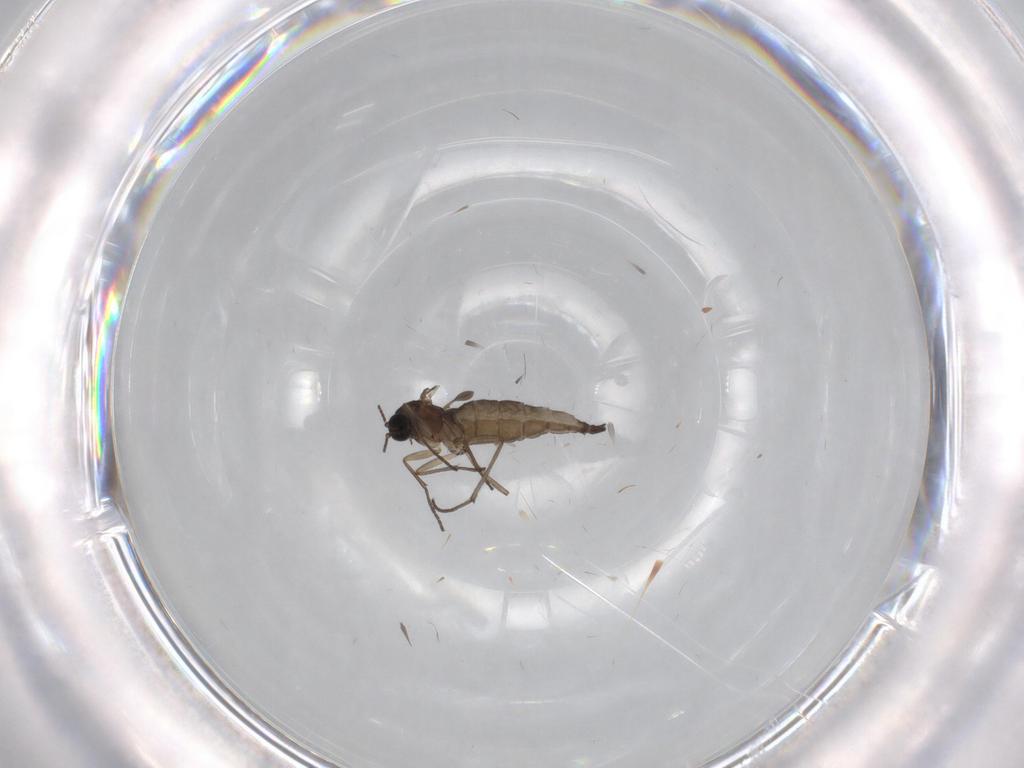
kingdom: Animalia
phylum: Arthropoda
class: Insecta
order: Diptera
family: Sciaridae
